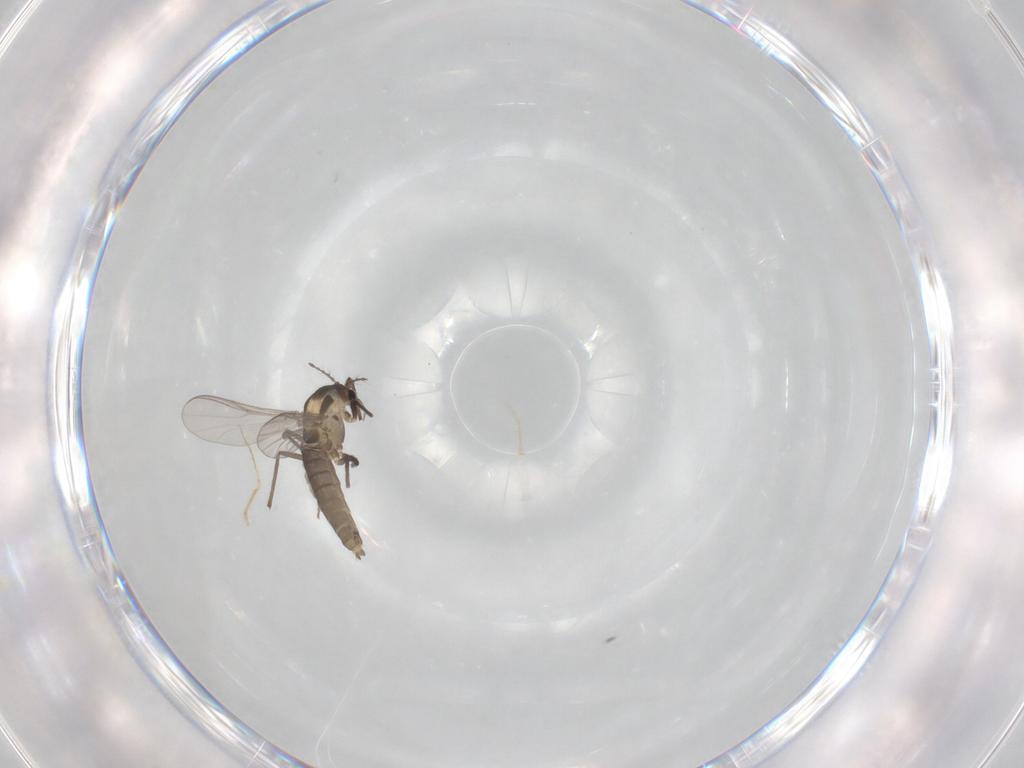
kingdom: Animalia
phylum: Arthropoda
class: Insecta
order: Diptera
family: Chironomidae
